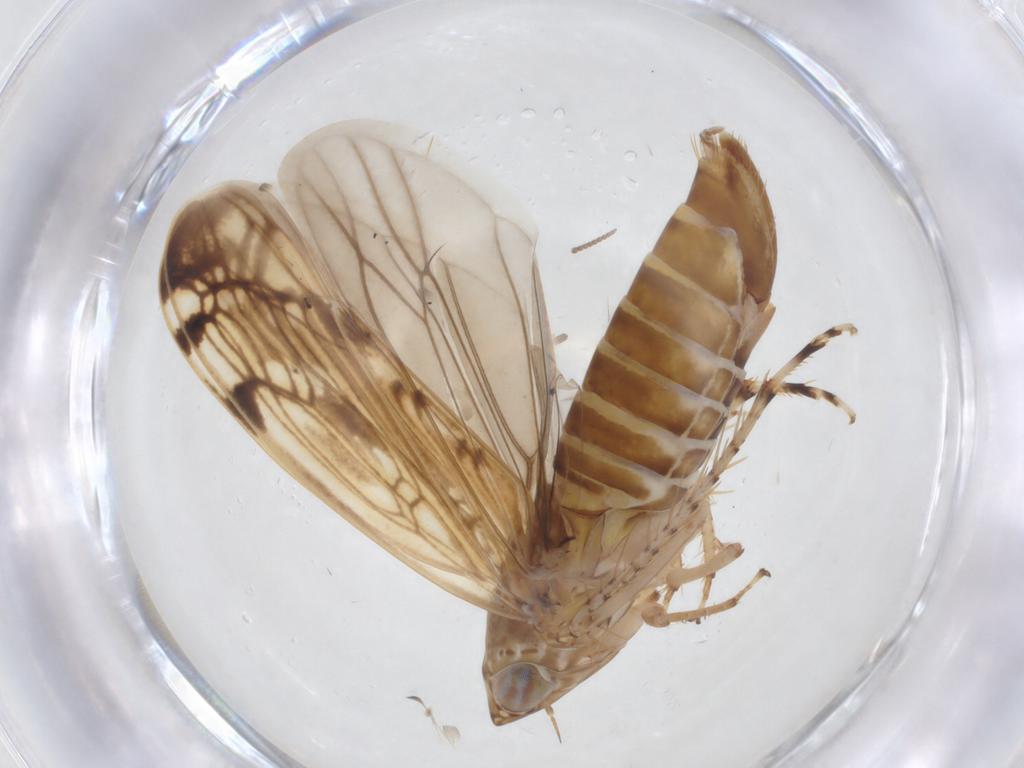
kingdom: Animalia
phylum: Arthropoda
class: Insecta
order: Hemiptera
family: Cicadellidae
